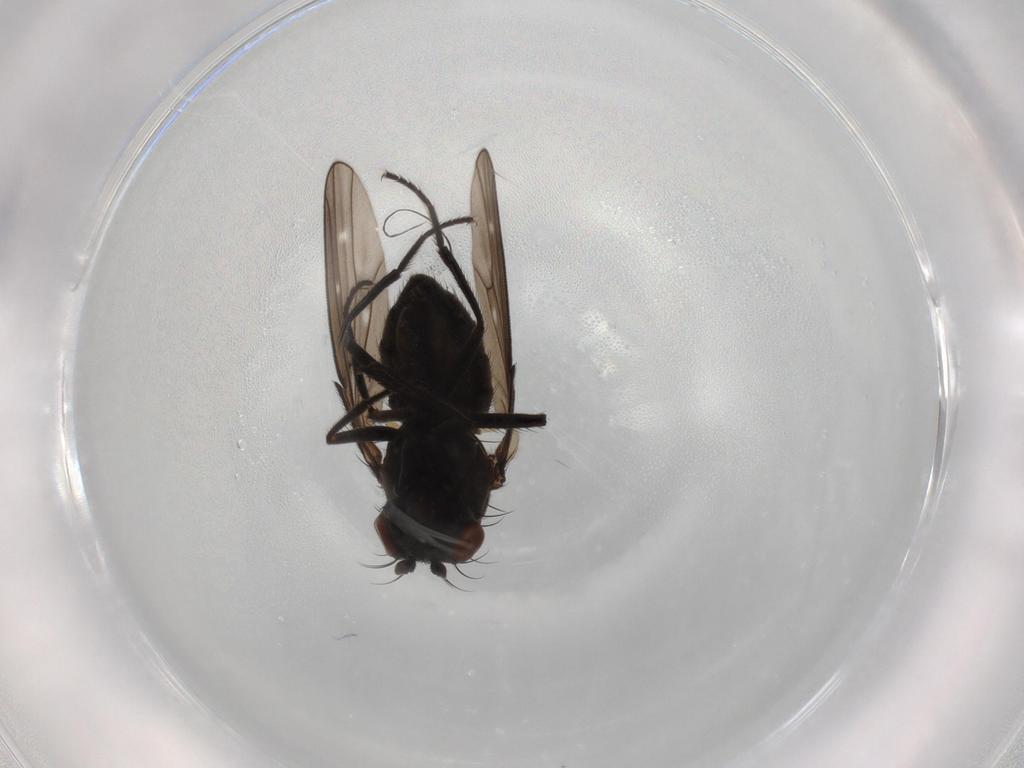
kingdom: Animalia
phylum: Arthropoda
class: Insecta
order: Diptera
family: Ephydridae
